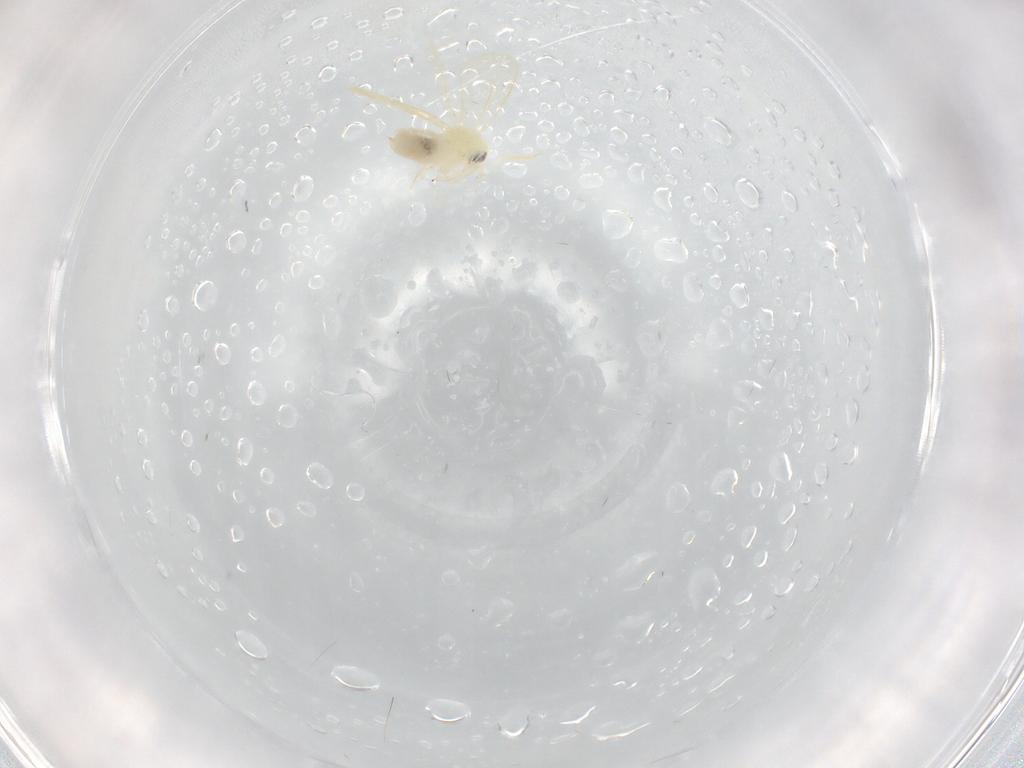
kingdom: Animalia
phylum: Arthropoda
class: Insecta
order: Hemiptera
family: Aleyrodidae
